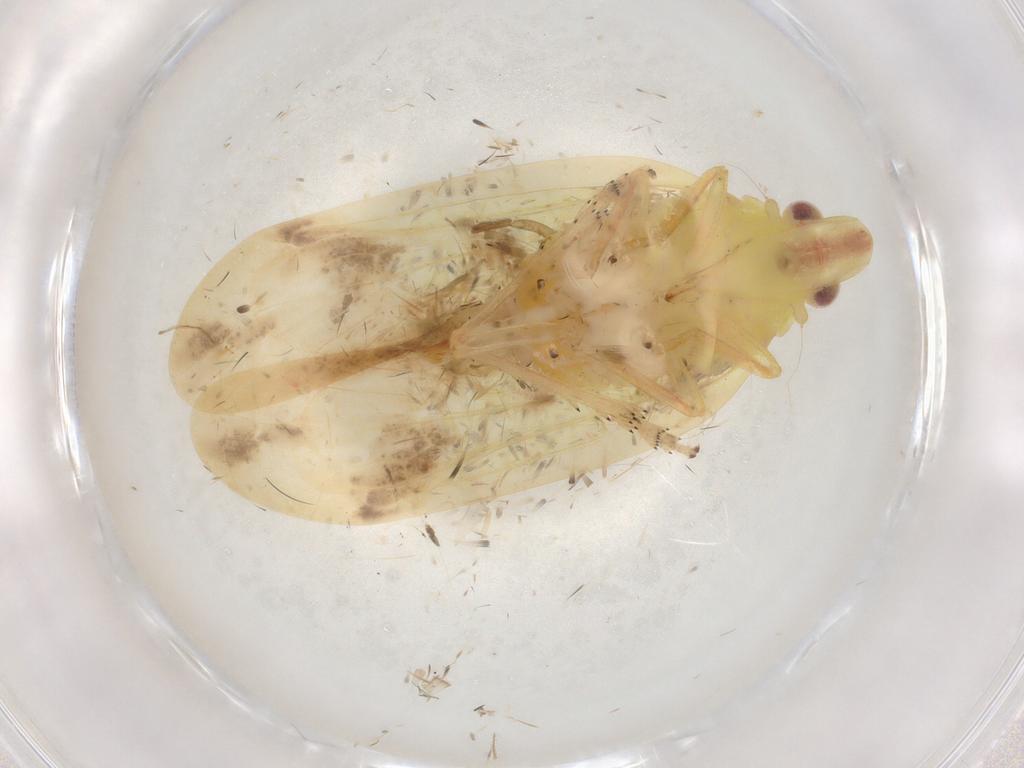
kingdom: Animalia
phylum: Arthropoda
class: Insecta
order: Hemiptera
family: Tropiduchidae
